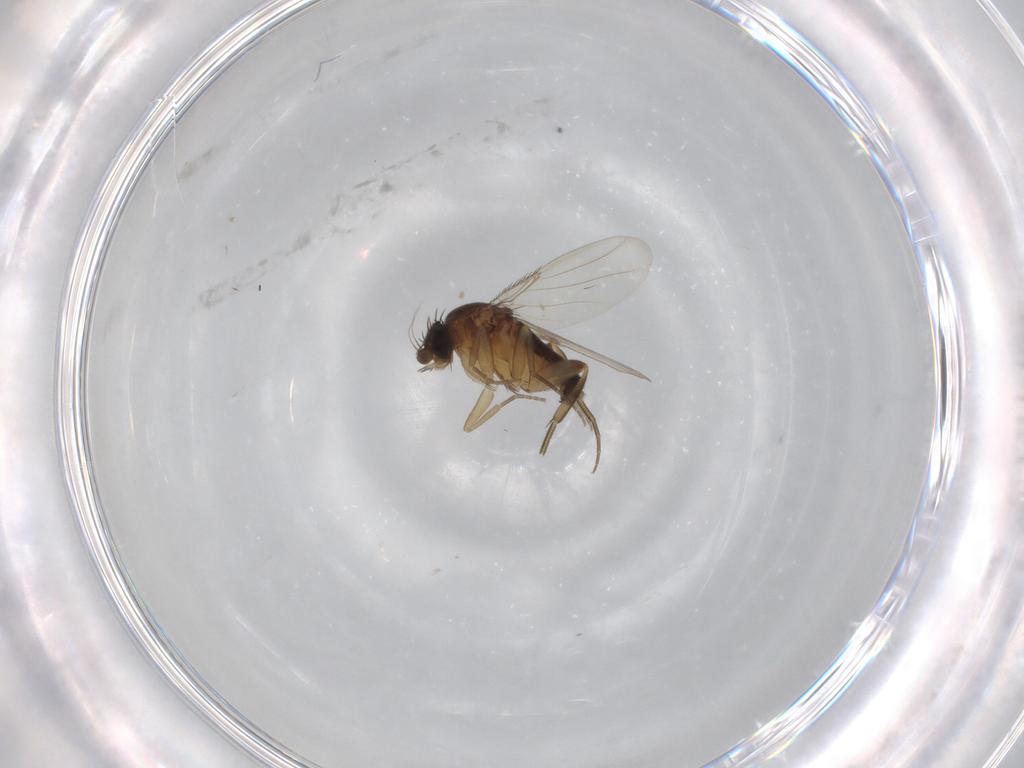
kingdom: Animalia
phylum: Arthropoda
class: Insecta
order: Diptera
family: Phoridae
